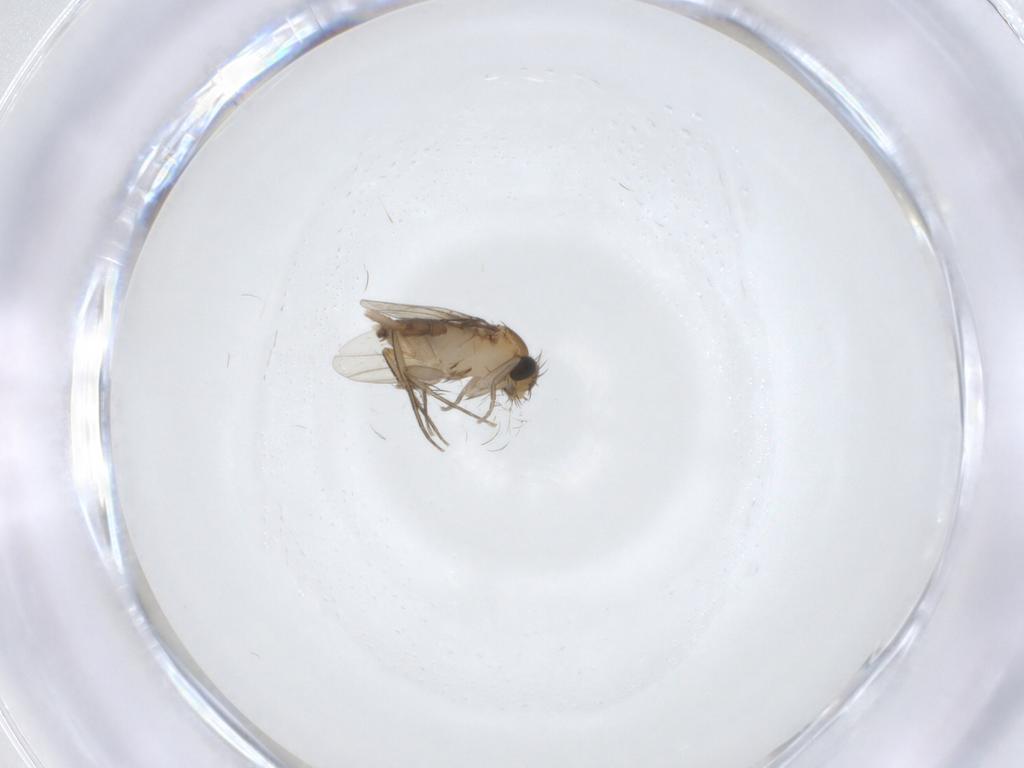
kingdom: Animalia
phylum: Arthropoda
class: Insecta
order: Diptera
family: Phoridae
